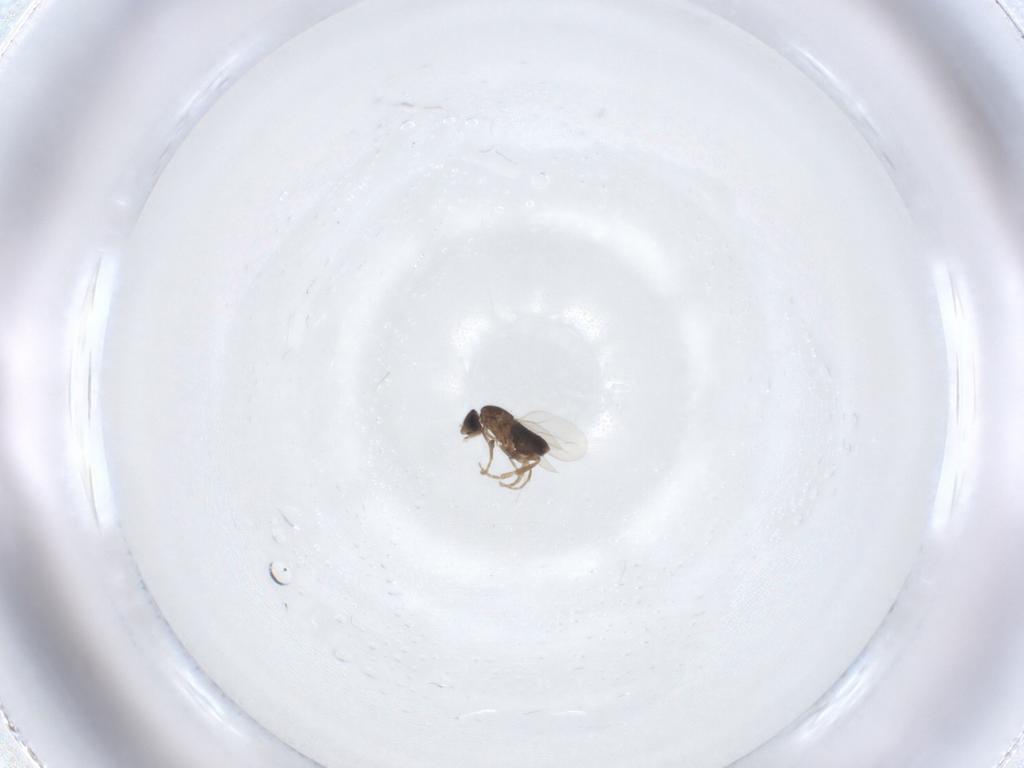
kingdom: Animalia
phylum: Arthropoda
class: Insecta
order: Diptera
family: Phoridae
